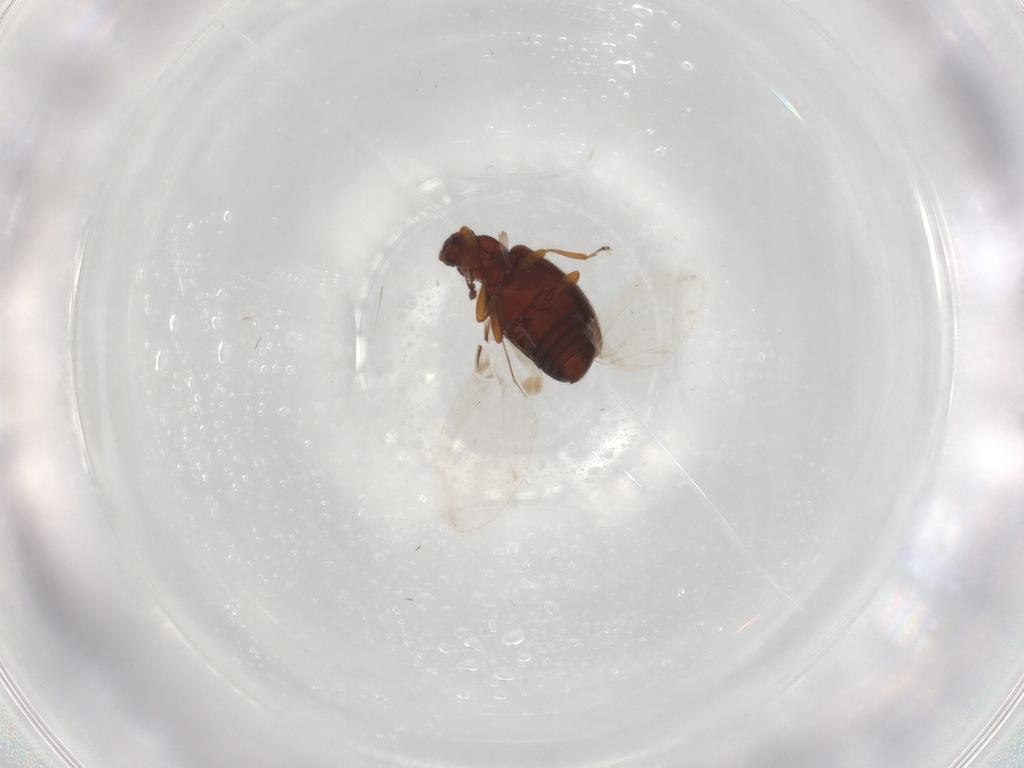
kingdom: Animalia
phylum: Arthropoda
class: Insecta
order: Coleoptera
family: Latridiidae
